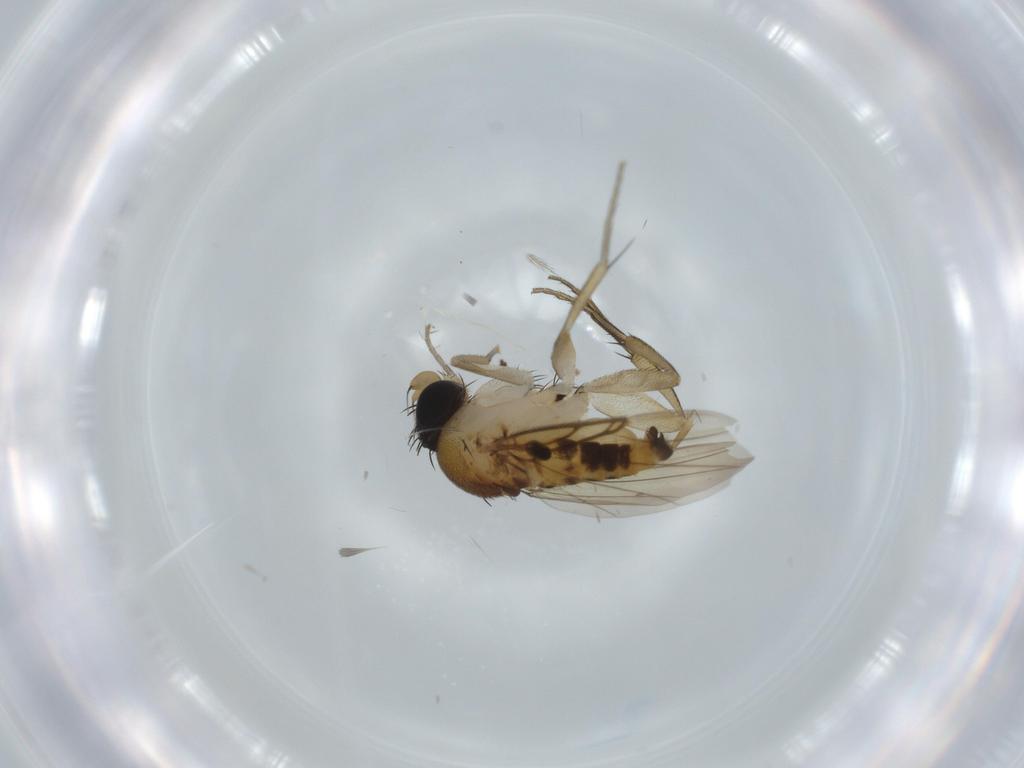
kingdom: Animalia
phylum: Arthropoda
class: Insecta
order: Diptera
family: Phoridae
